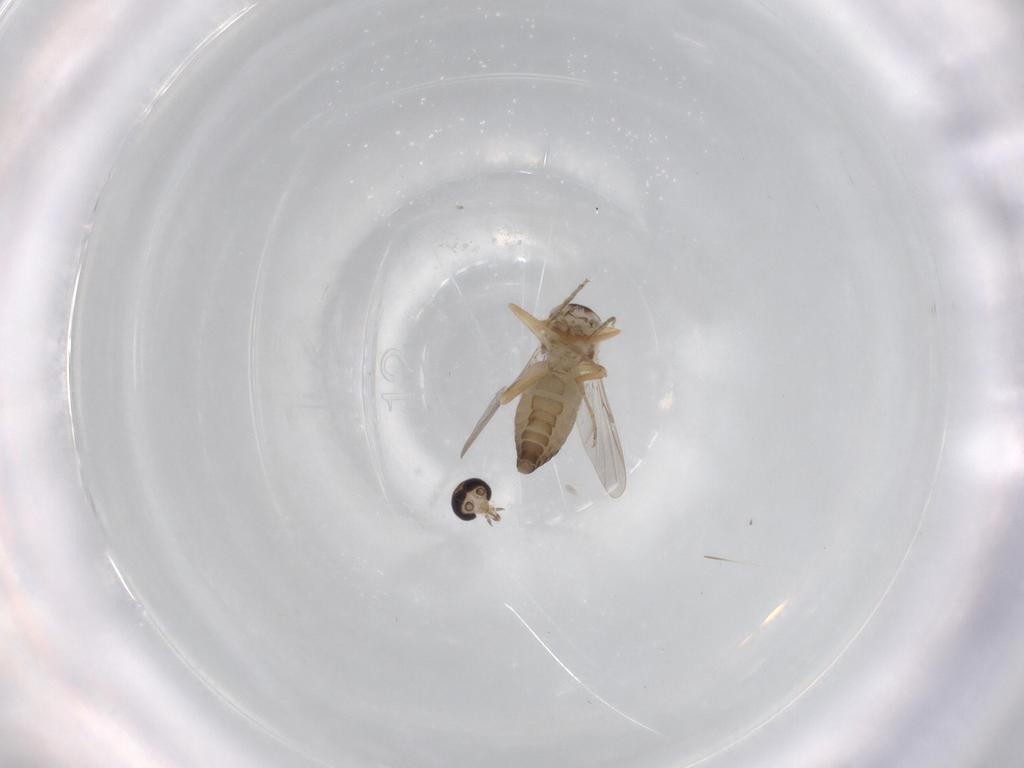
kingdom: Animalia
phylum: Arthropoda
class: Insecta
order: Diptera
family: Ceratopogonidae
